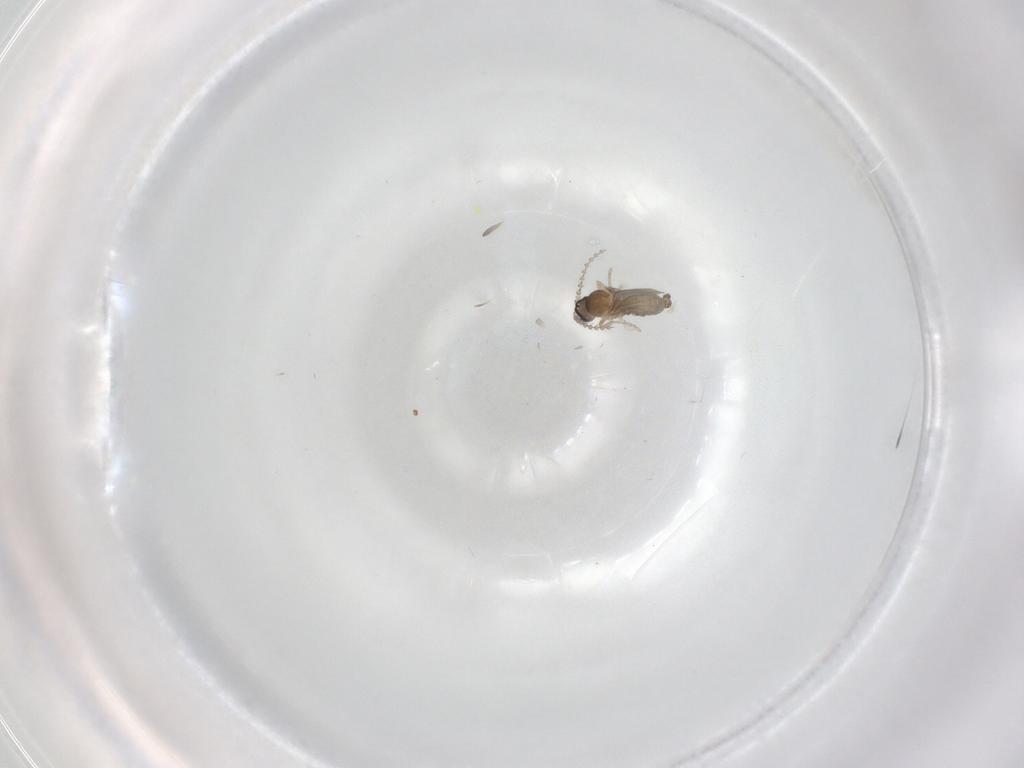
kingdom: Animalia
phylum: Arthropoda
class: Insecta
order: Diptera
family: Cecidomyiidae
